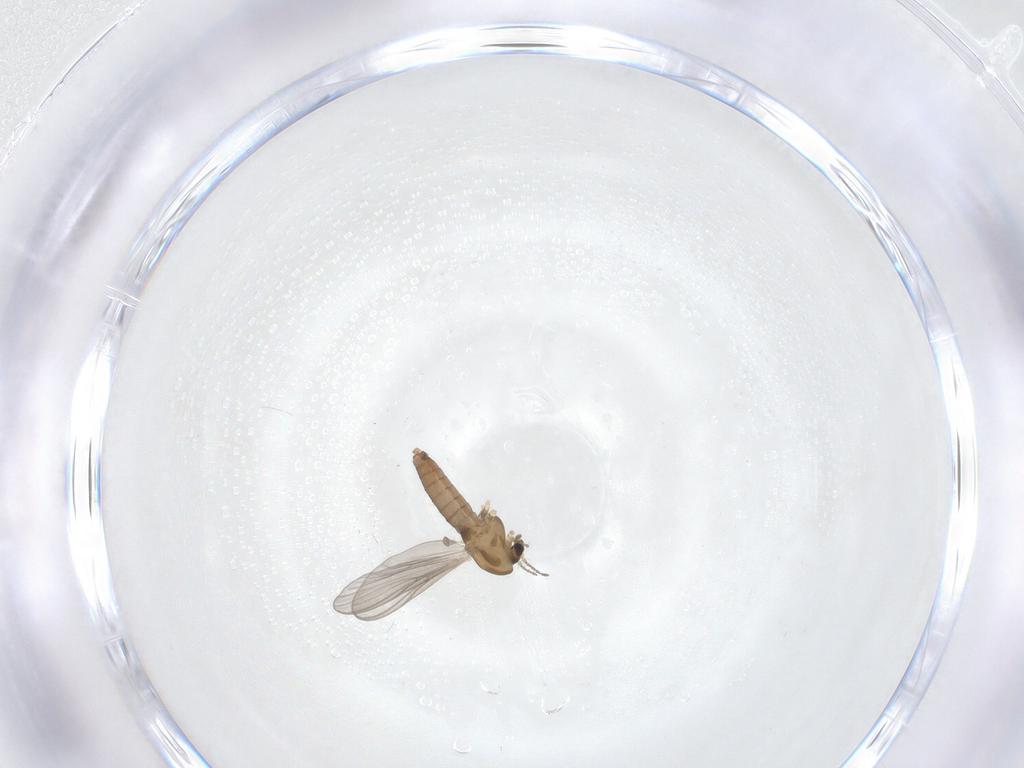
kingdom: Animalia
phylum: Arthropoda
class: Insecta
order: Diptera
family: Chironomidae
